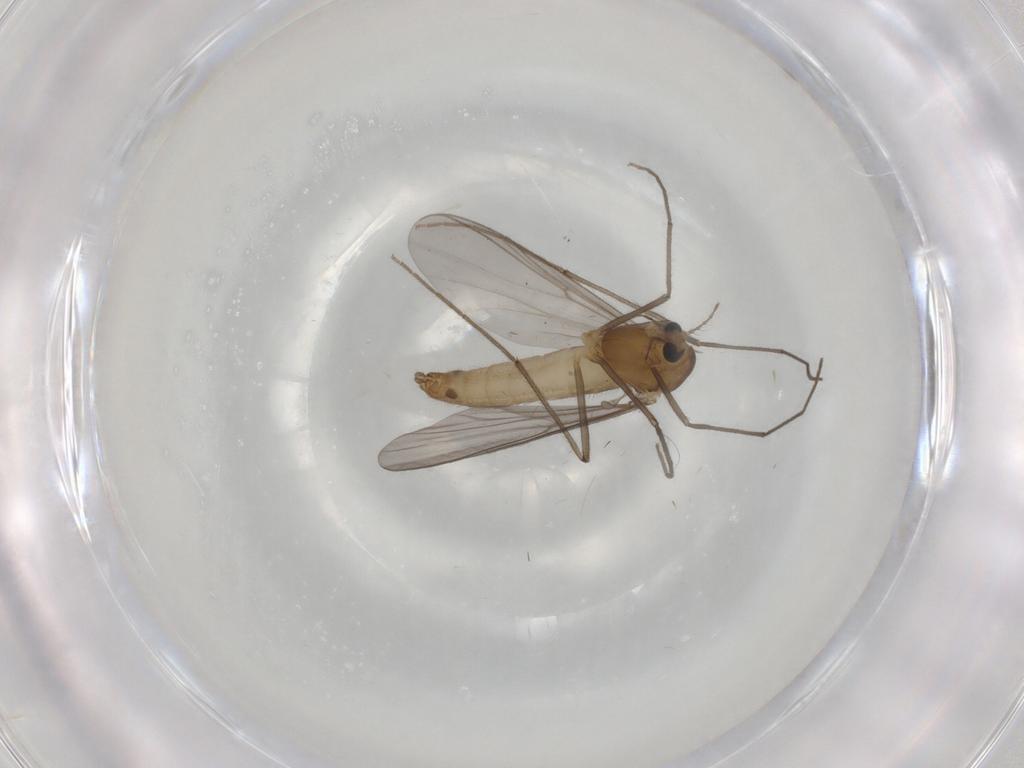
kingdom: Animalia
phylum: Arthropoda
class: Insecta
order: Diptera
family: Chironomidae
